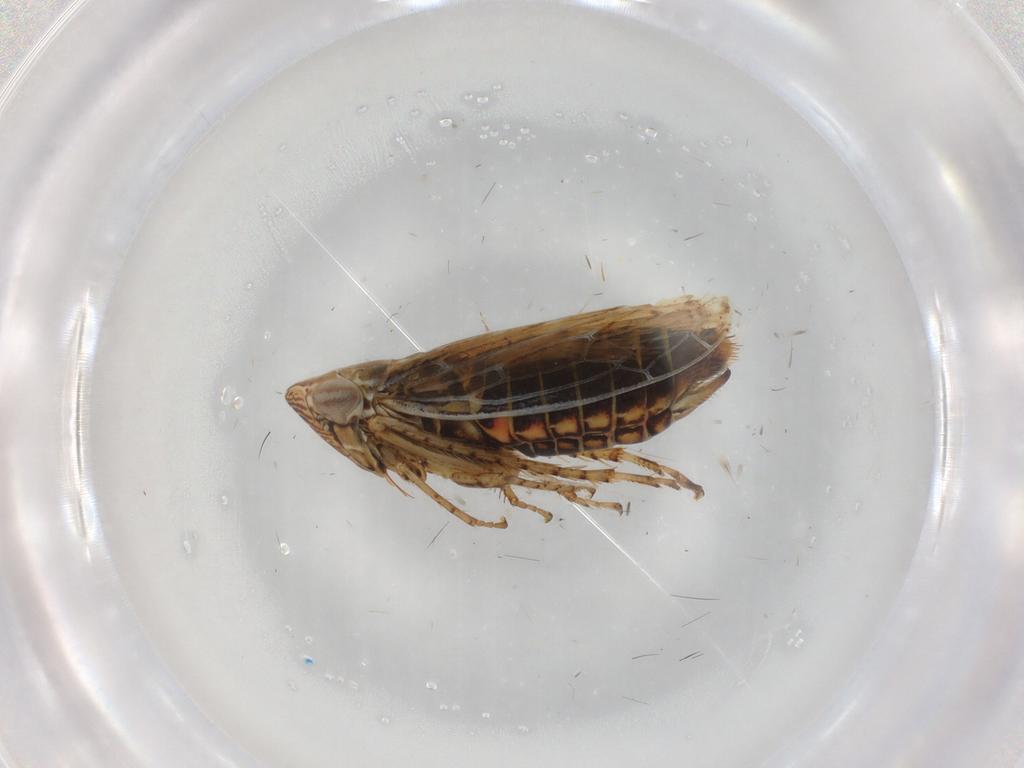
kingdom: Animalia
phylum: Arthropoda
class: Insecta
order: Hemiptera
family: Cicadellidae
